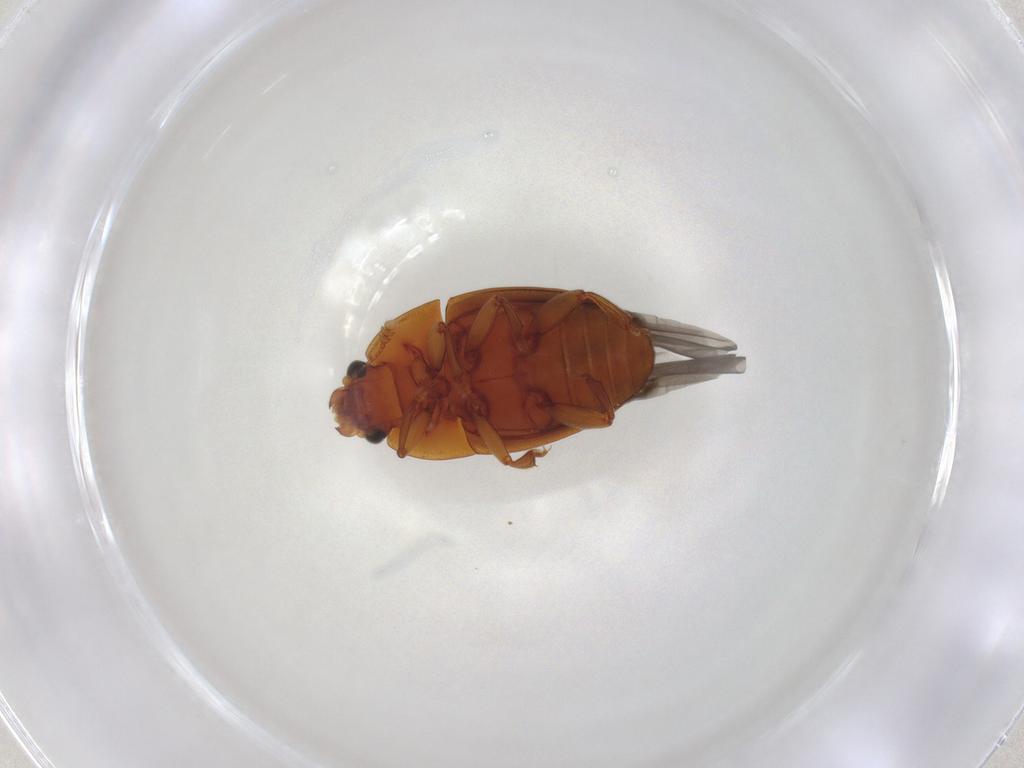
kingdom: Animalia
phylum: Arthropoda
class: Insecta
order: Coleoptera
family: Nitidulidae
